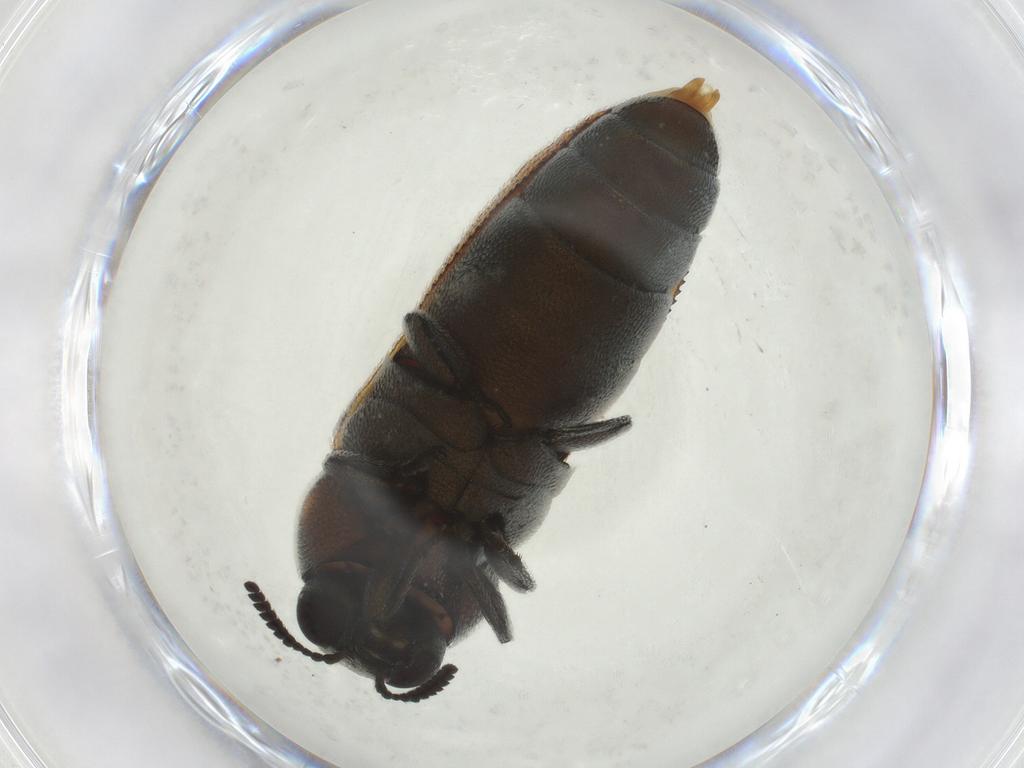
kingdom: Animalia
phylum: Arthropoda
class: Insecta
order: Coleoptera
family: Buprestidae
